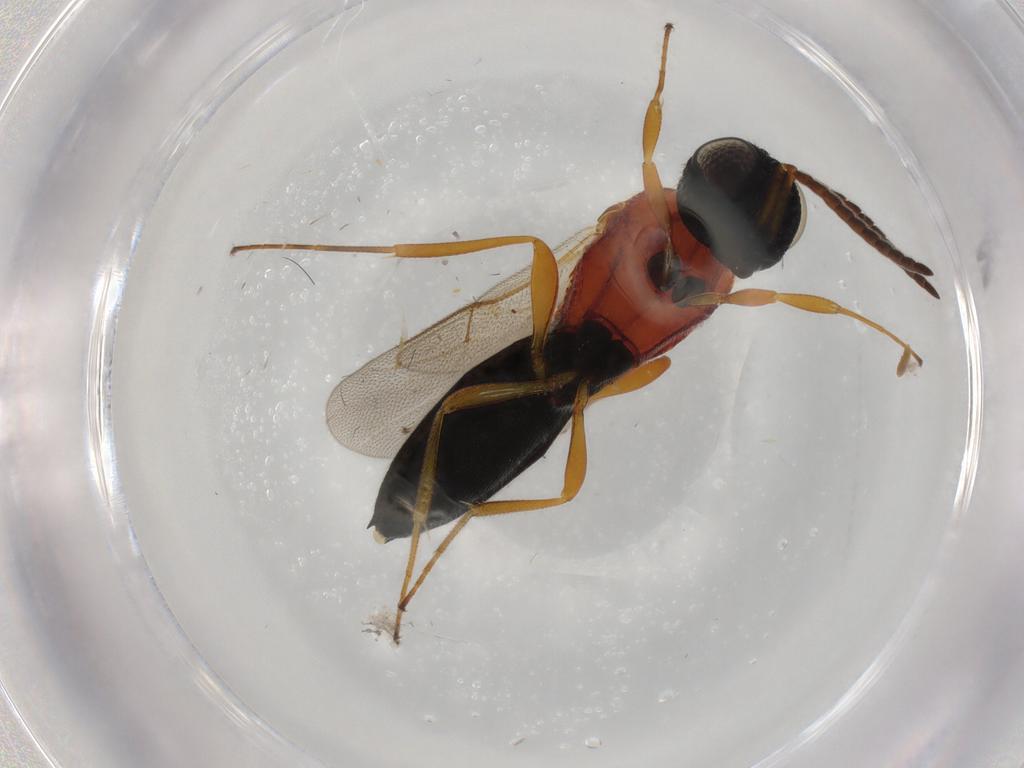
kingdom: Animalia
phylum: Arthropoda
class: Insecta
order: Hymenoptera
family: Scelionidae
